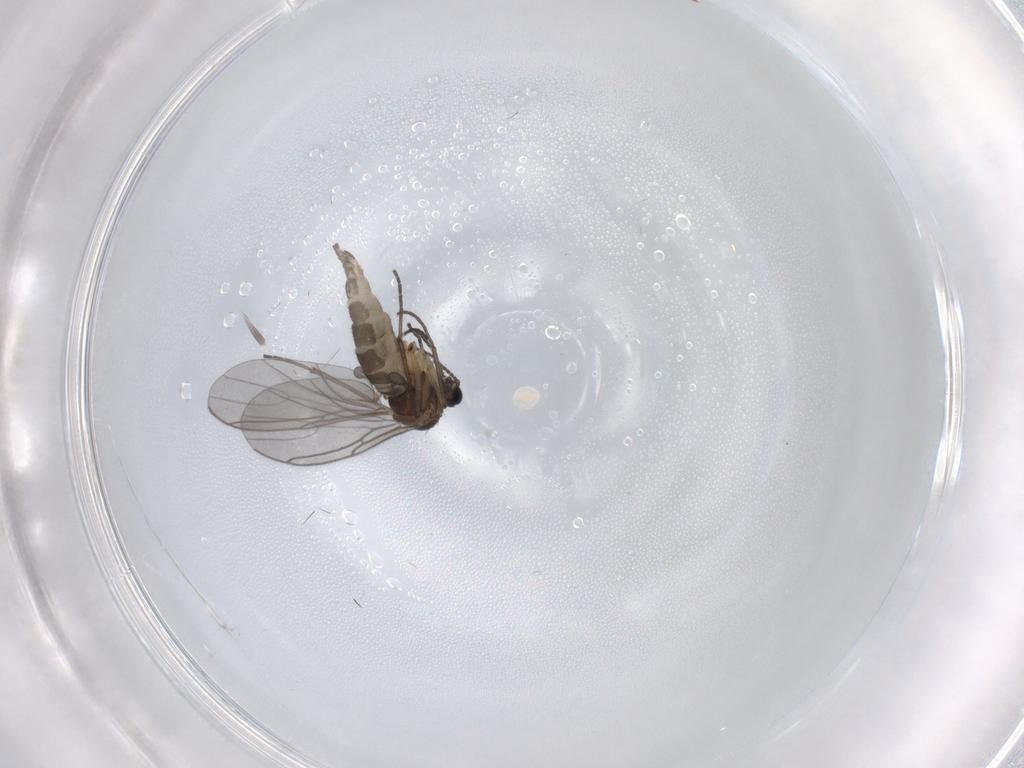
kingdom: Animalia
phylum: Arthropoda
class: Insecta
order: Diptera
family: Sciaridae
